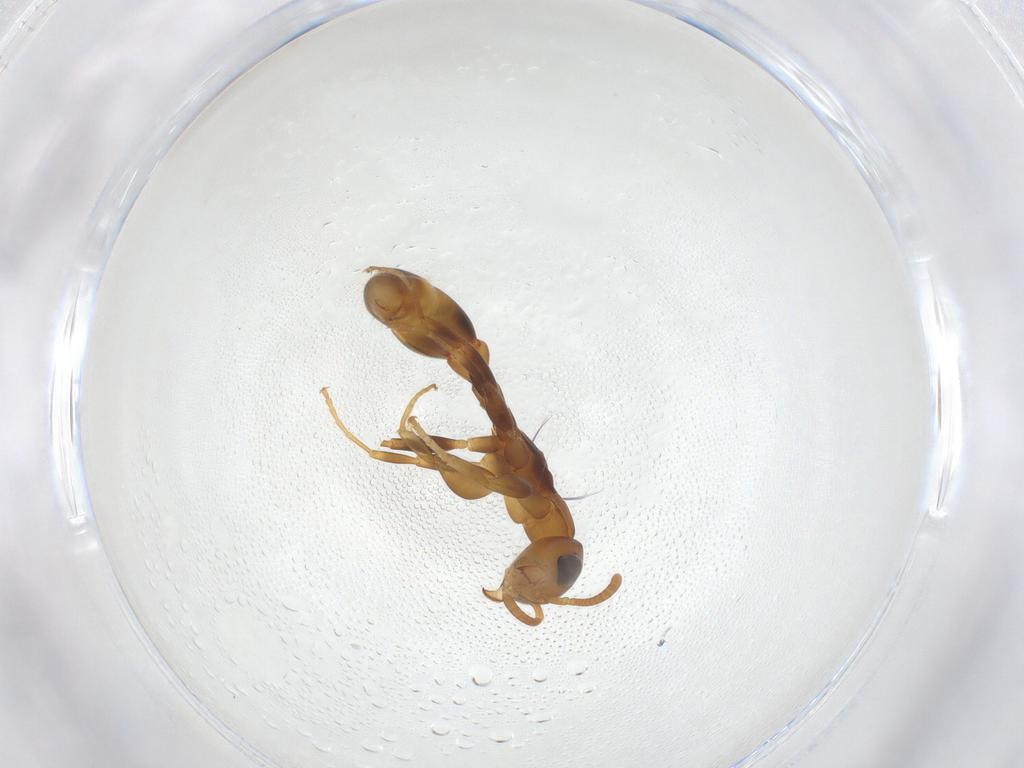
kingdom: Animalia
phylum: Arthropoda
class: Insecta
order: Hymenoptera
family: Formicidae
